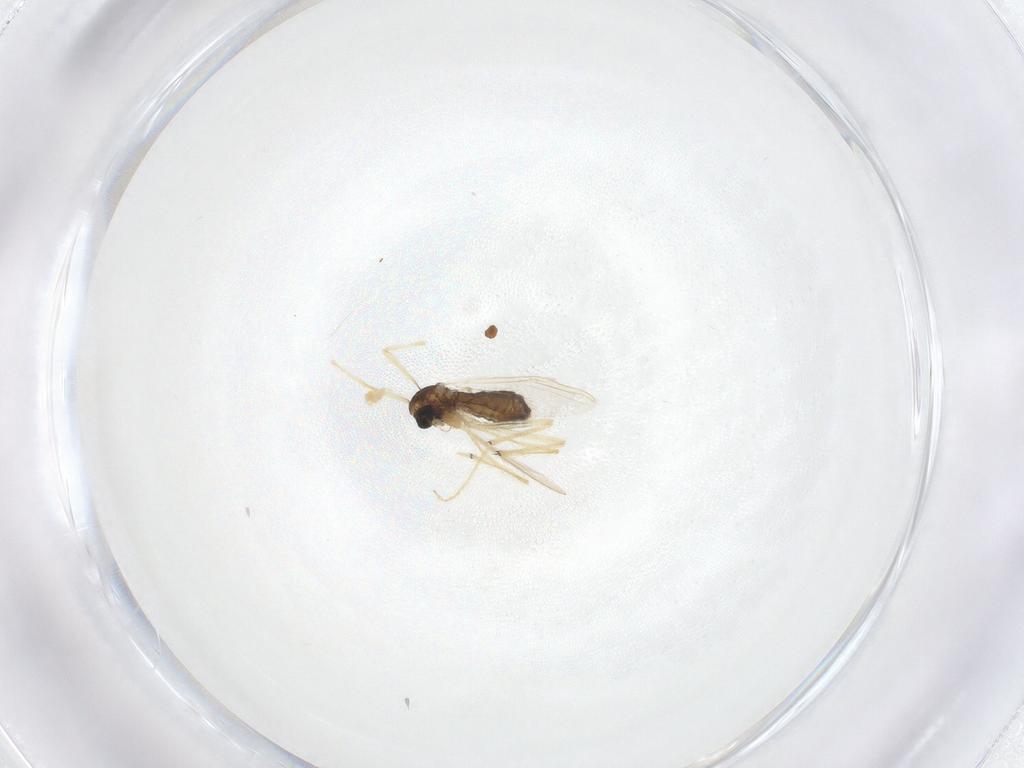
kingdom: Animalia
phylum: Arthropoda
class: Insecta
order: Diptera
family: Chironomidae
